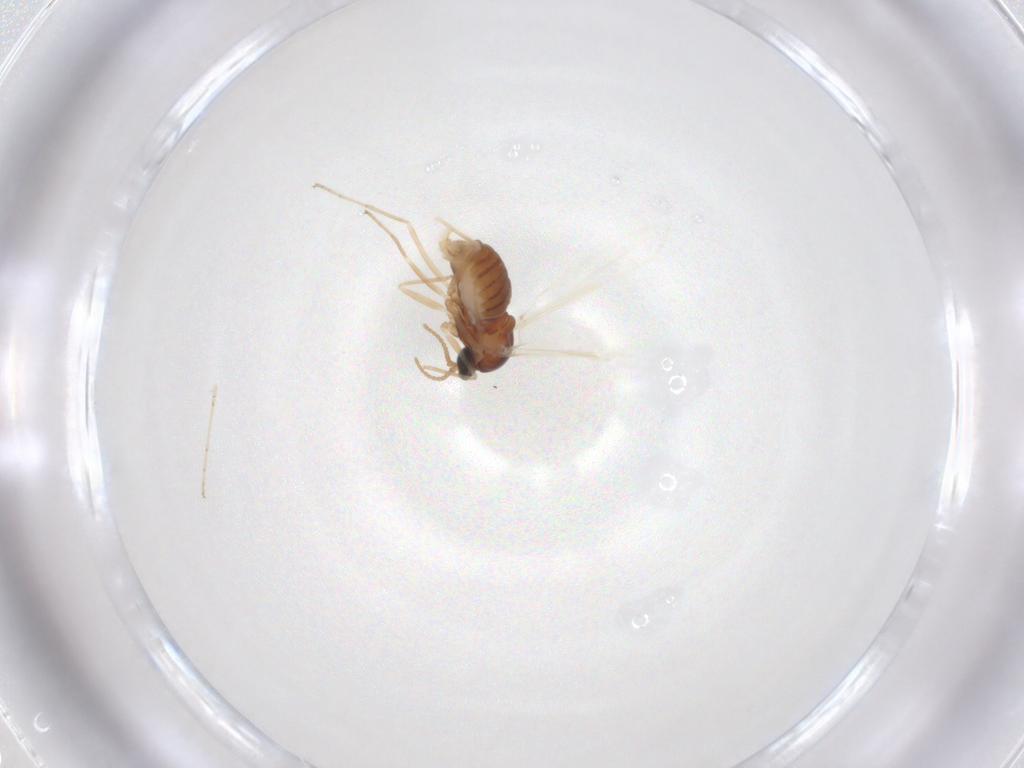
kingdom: Animalia
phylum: Arthropoda
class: Insecta
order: Diptera
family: Cecidomyiidae
